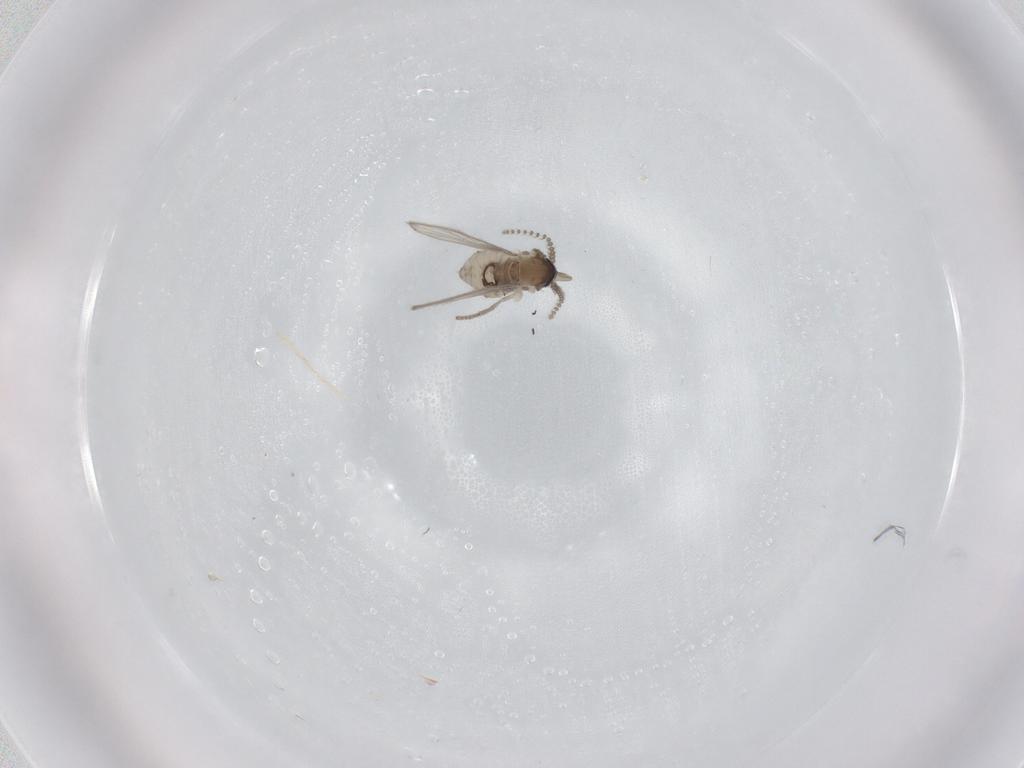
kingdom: Animalia
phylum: Arthropoda
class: Insecta
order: Diptera
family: Psychodidae
